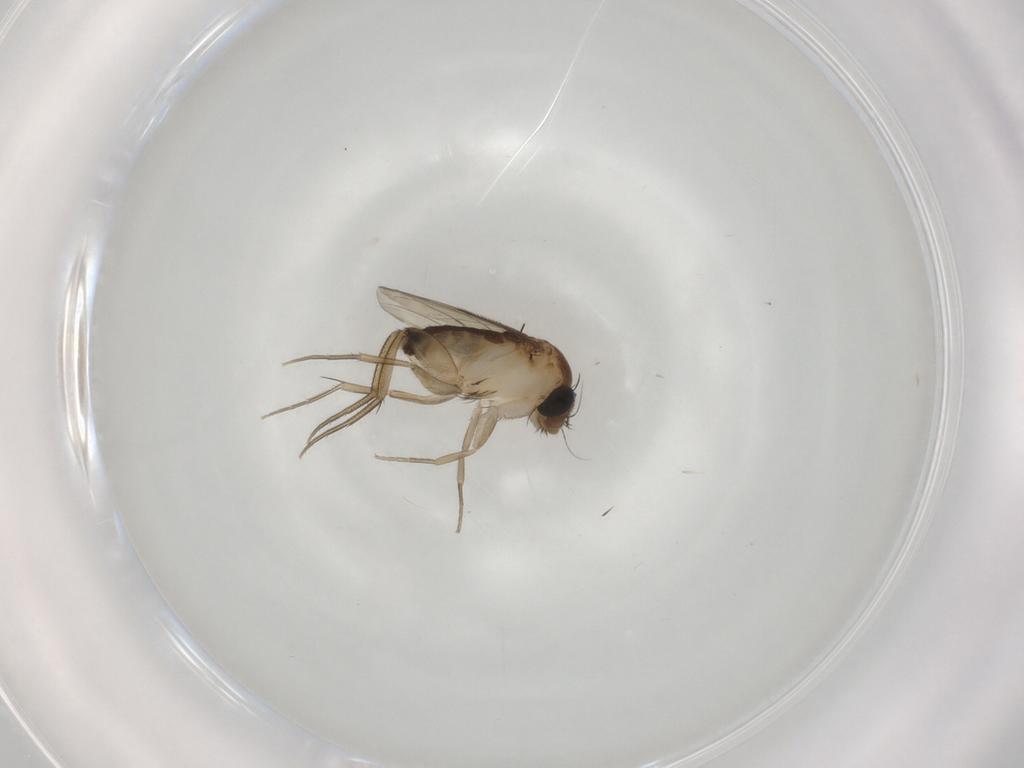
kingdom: Animalia
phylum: Arthropoda
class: Insecta
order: Diptera
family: Phoridae
